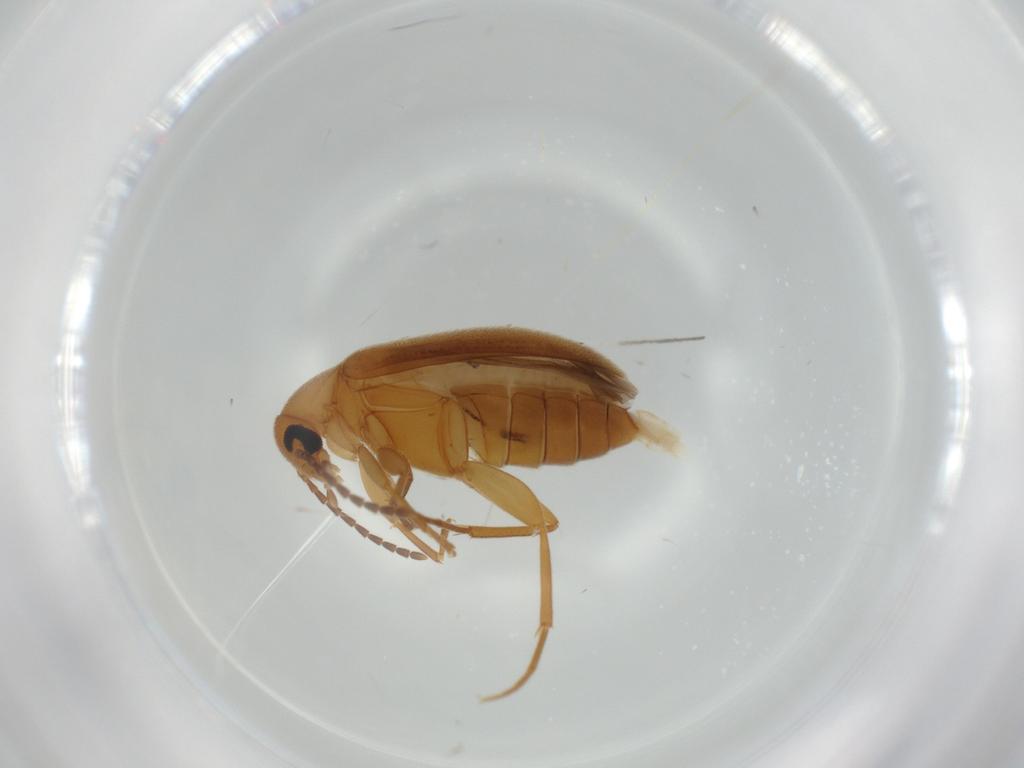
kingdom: Animalia
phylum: Arthropoda
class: Insecta
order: Coleoptera
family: Scraptiidae
